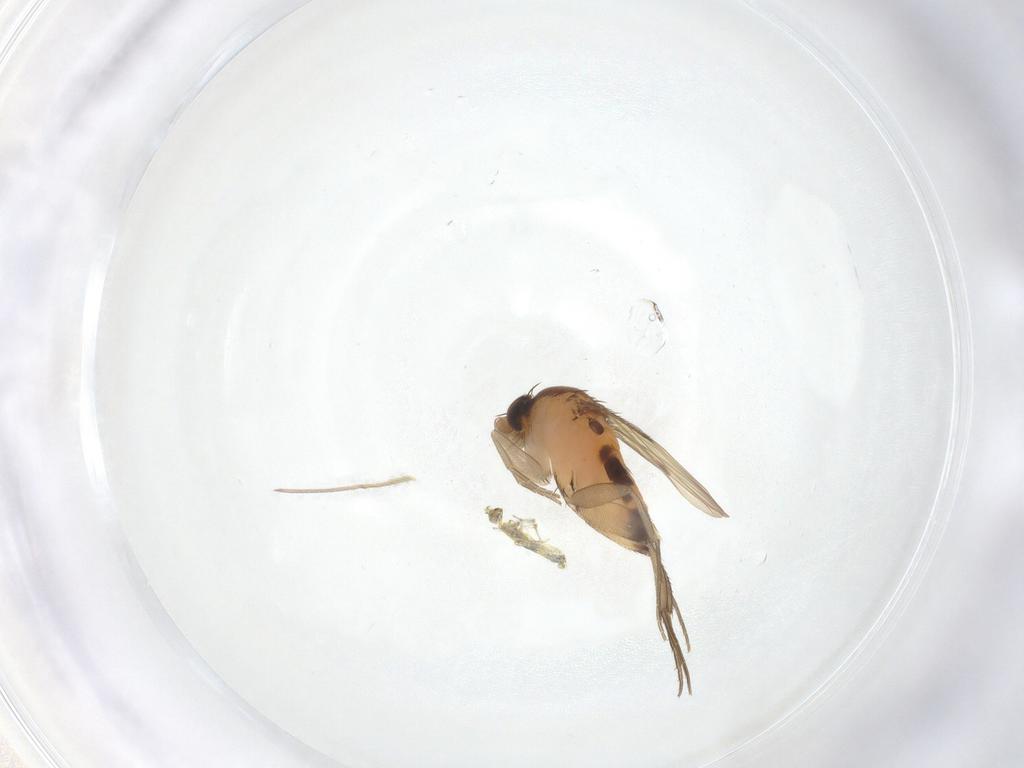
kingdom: Animalia
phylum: Arthropoda
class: Insecta
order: Diptera
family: Phoridae
